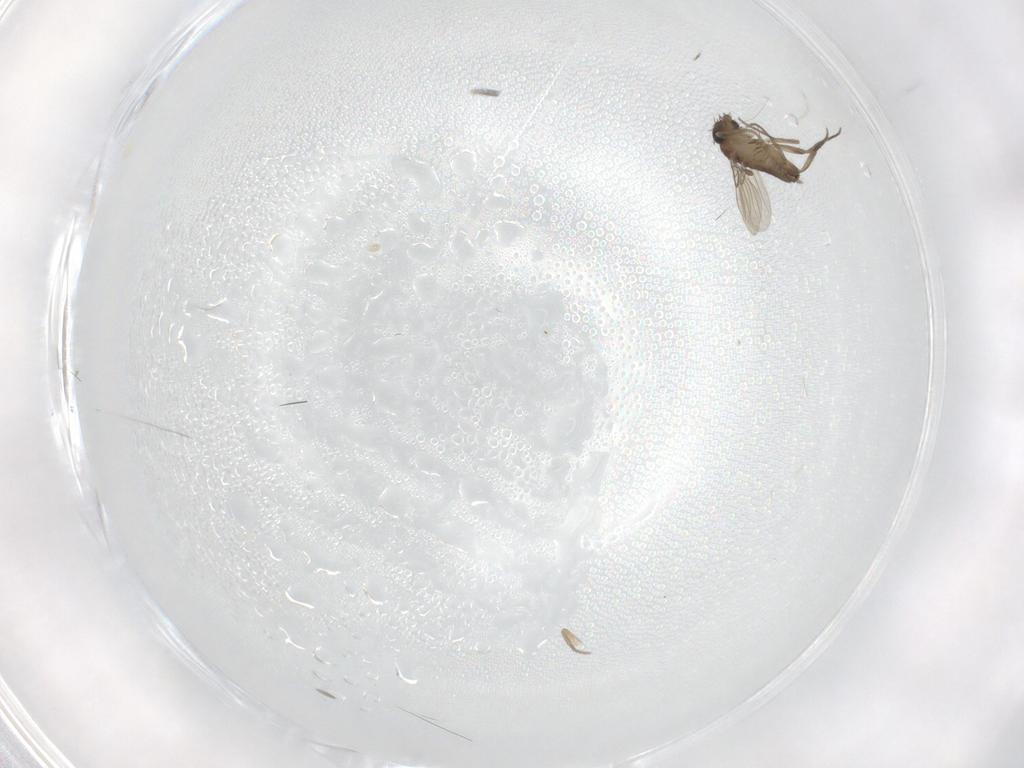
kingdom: Animalia
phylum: Arthropoda
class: Insecta
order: Diptera
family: Cecidomyiidae
